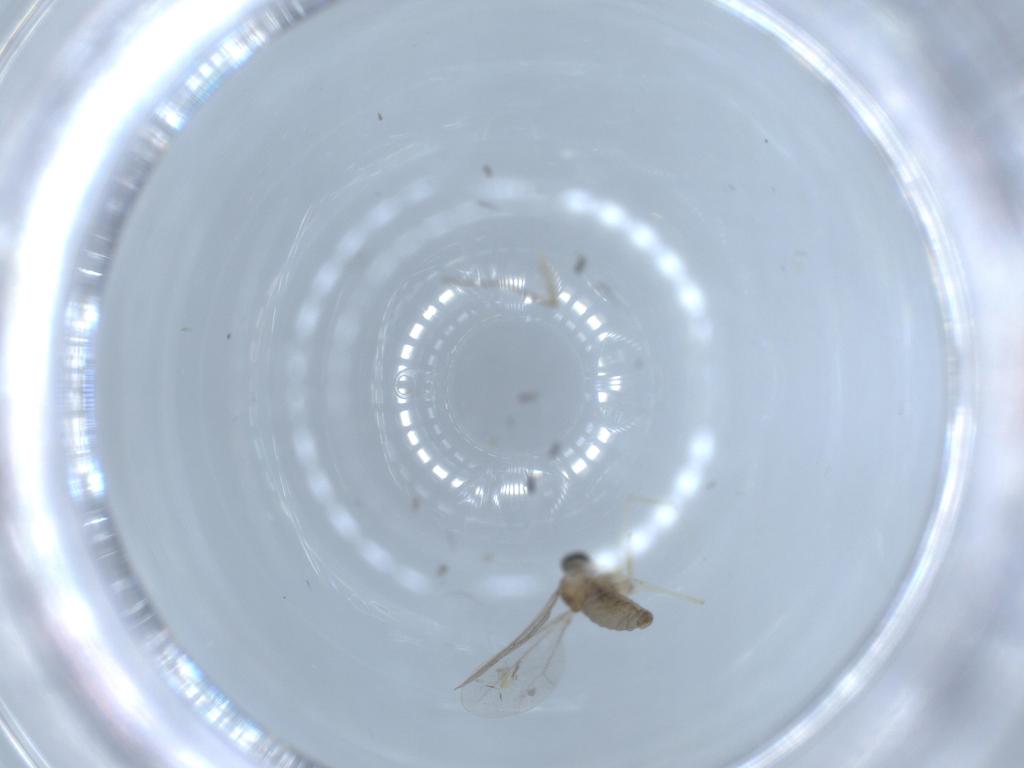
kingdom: Animalia
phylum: Arthropoda
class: Insecta
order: Diptera
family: Cecidomyiidae
